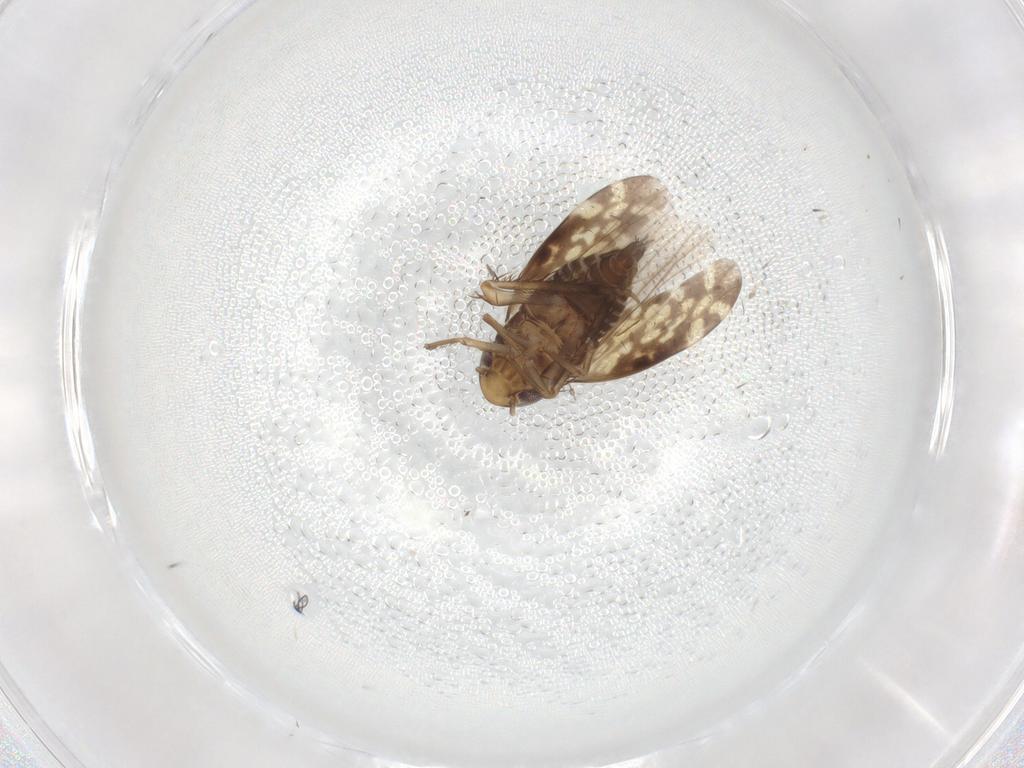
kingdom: Animalia
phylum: Arthropoda
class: Insecta
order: Hemiptera
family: Cicadellidae
